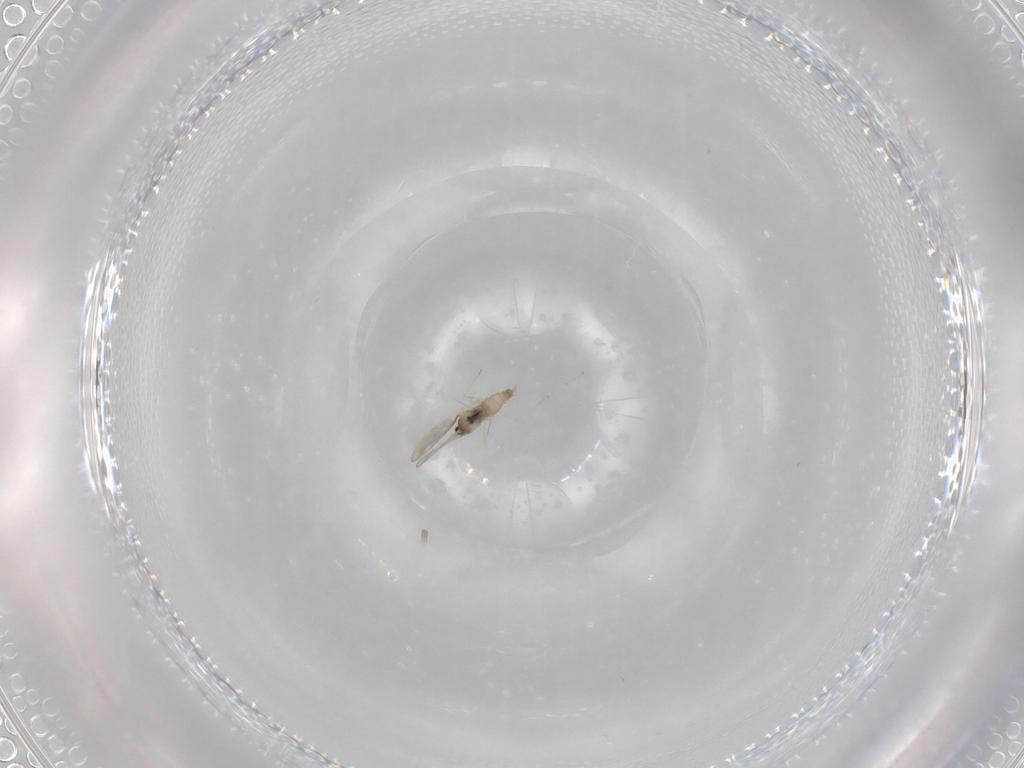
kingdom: Animalia
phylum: Arthropoda
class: Insecta
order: Diptera
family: Cecidomyiidae
